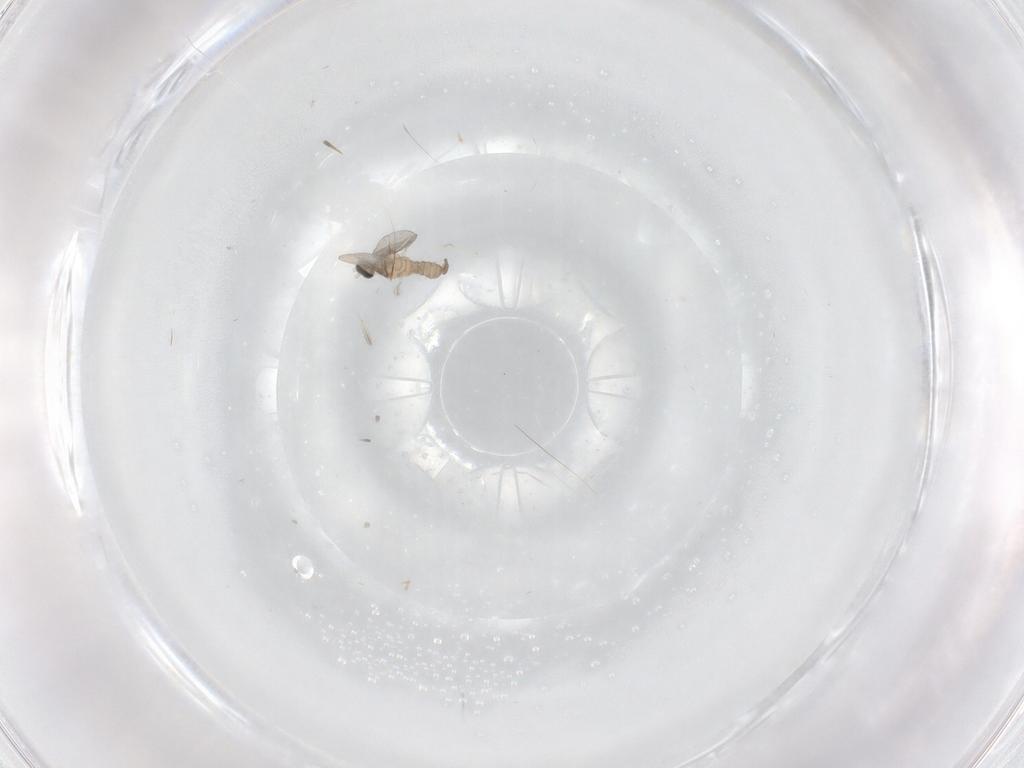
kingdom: Animalia
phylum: Arthropoda
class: Insecta
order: Diptera
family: Cecidomyiidae
